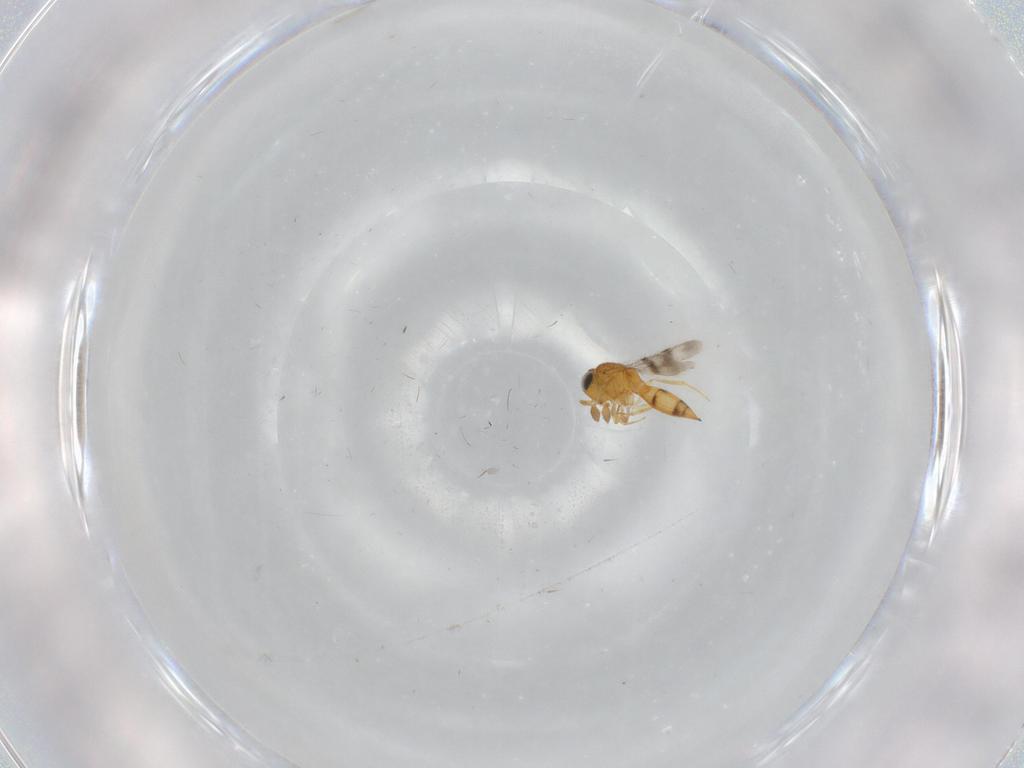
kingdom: Animalia
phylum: Arthropoda
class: Insecta
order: Hymenoptera
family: Scelionidae
